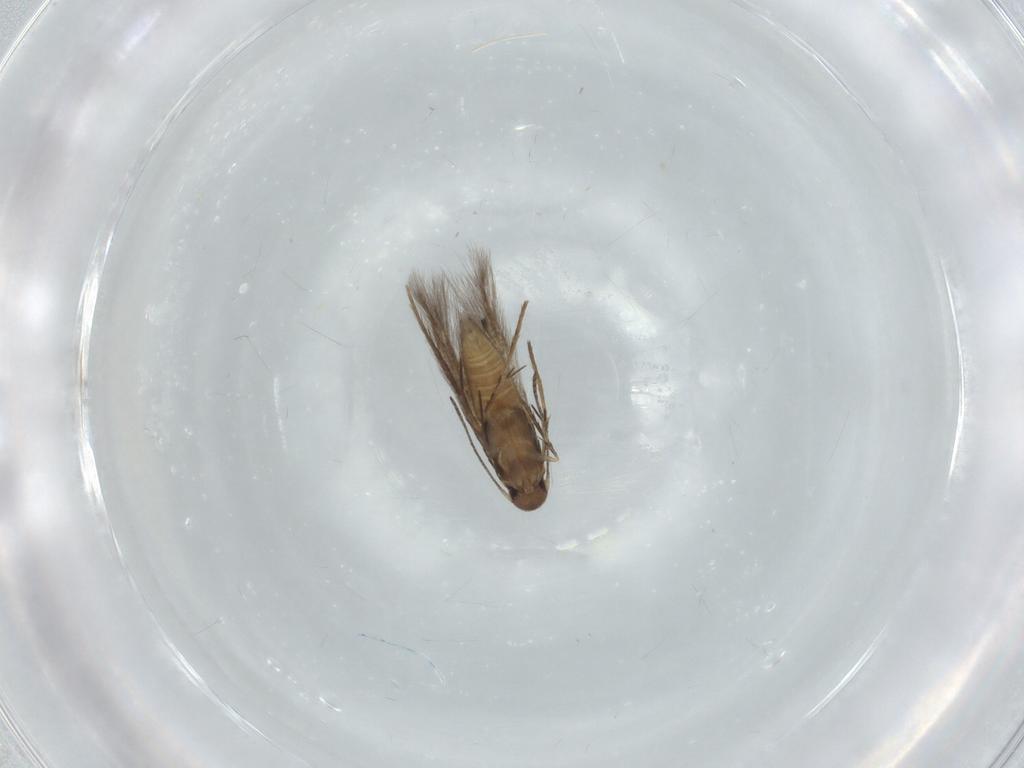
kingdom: Animalia
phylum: Arthropoda
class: Insecta
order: Lepidoptera
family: Pyralidae
